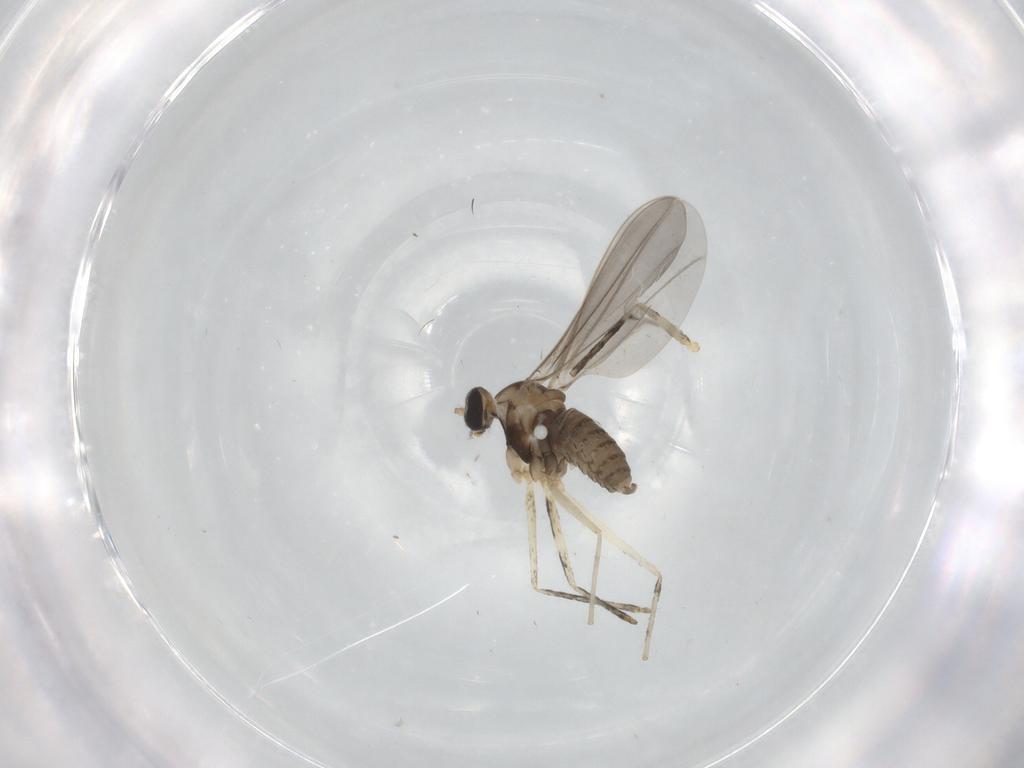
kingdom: Animalia
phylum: Arthropoda
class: Insecta
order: Diptera
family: Cecidomyiidae
